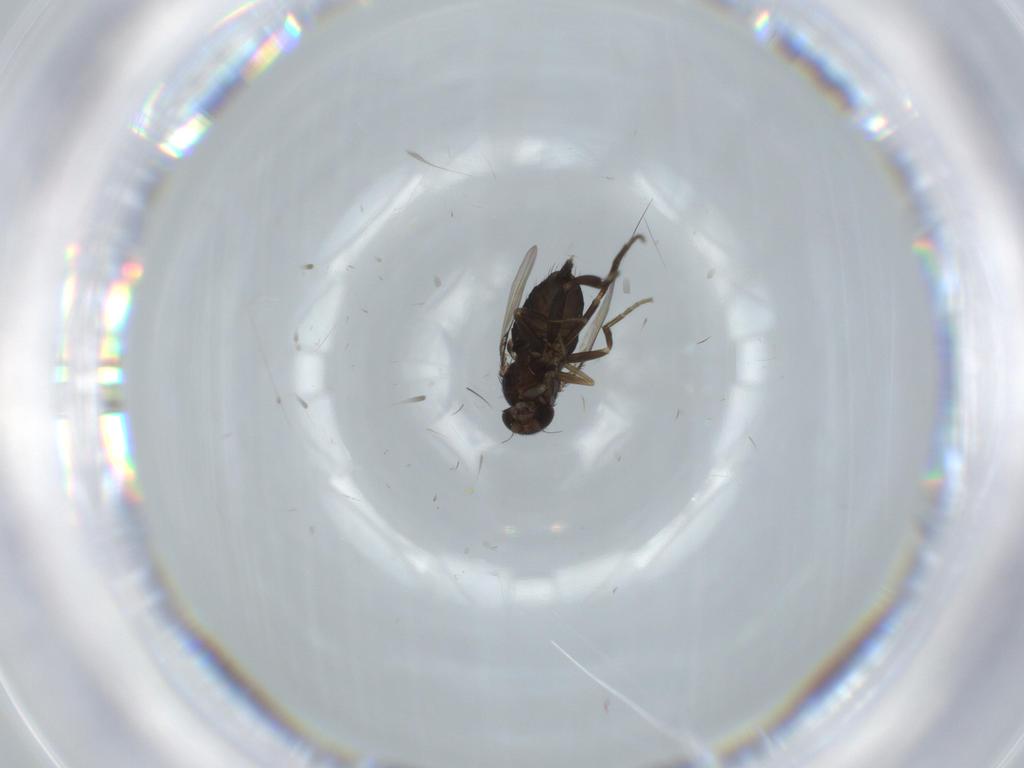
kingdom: Animalia
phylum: Arthropoda
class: Insecta
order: Diptera
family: Phoridae
